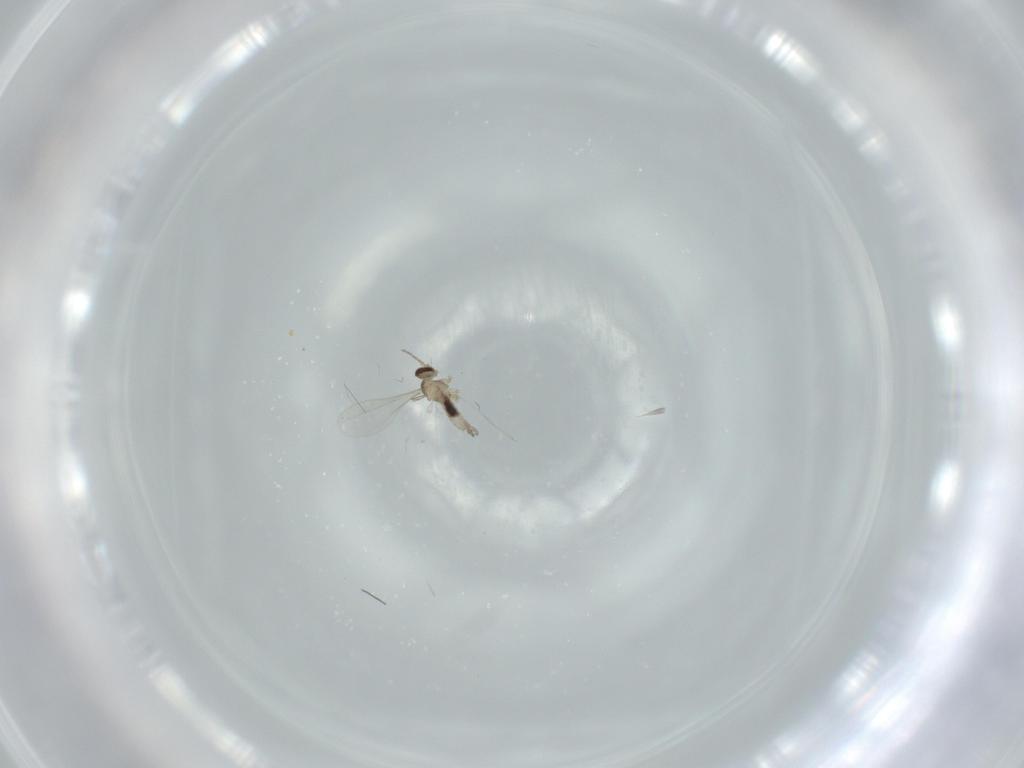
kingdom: Animalia
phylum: Arthropoda
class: Insecta
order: Diptera
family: Cecidomyiidae
